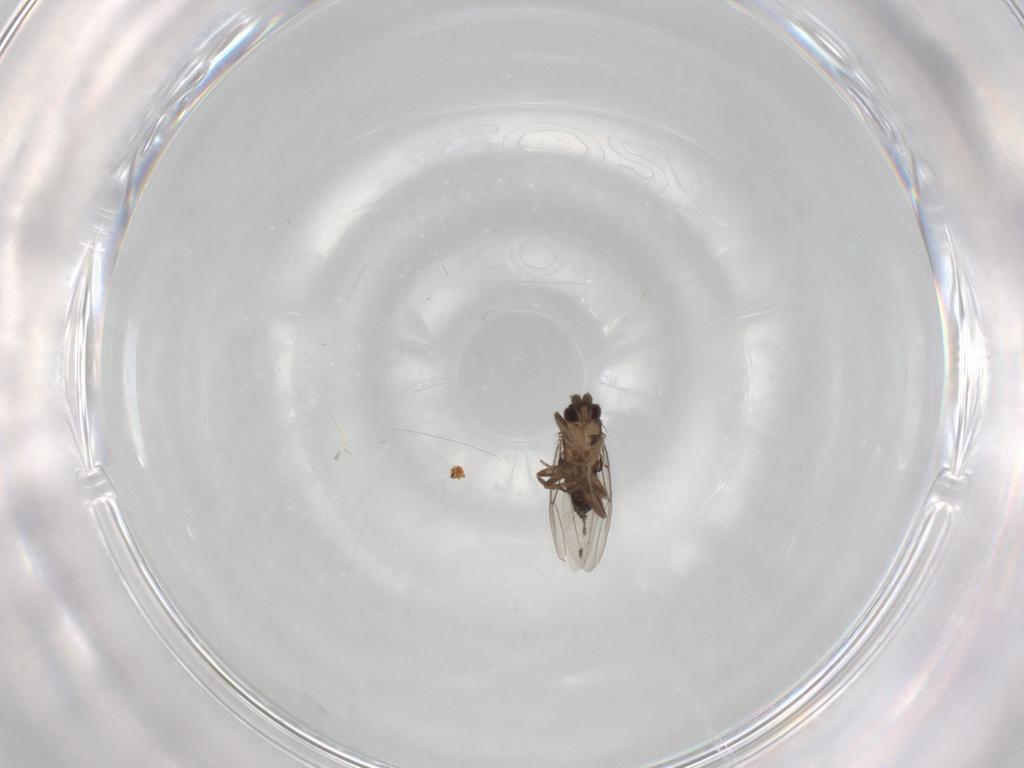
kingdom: Animalia
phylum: Arthropoda
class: Insecta
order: Diptera
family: Phoridae
